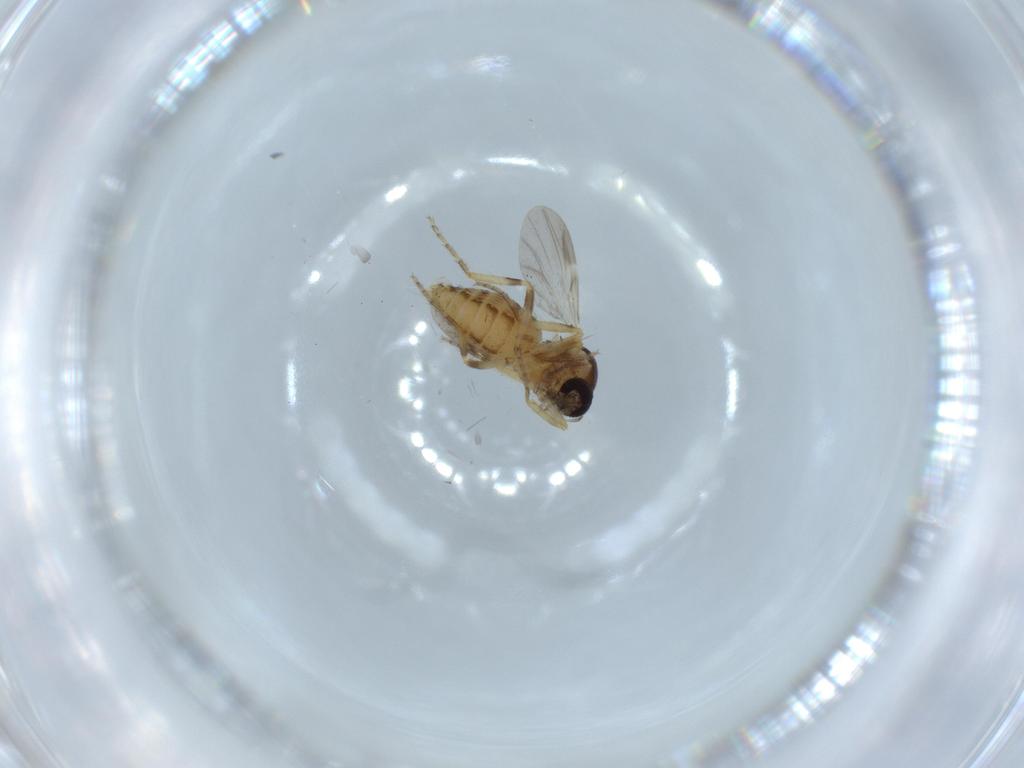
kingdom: Animalia
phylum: Arthropoda
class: Insecta
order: Diptera
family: Ceratopogonidae
